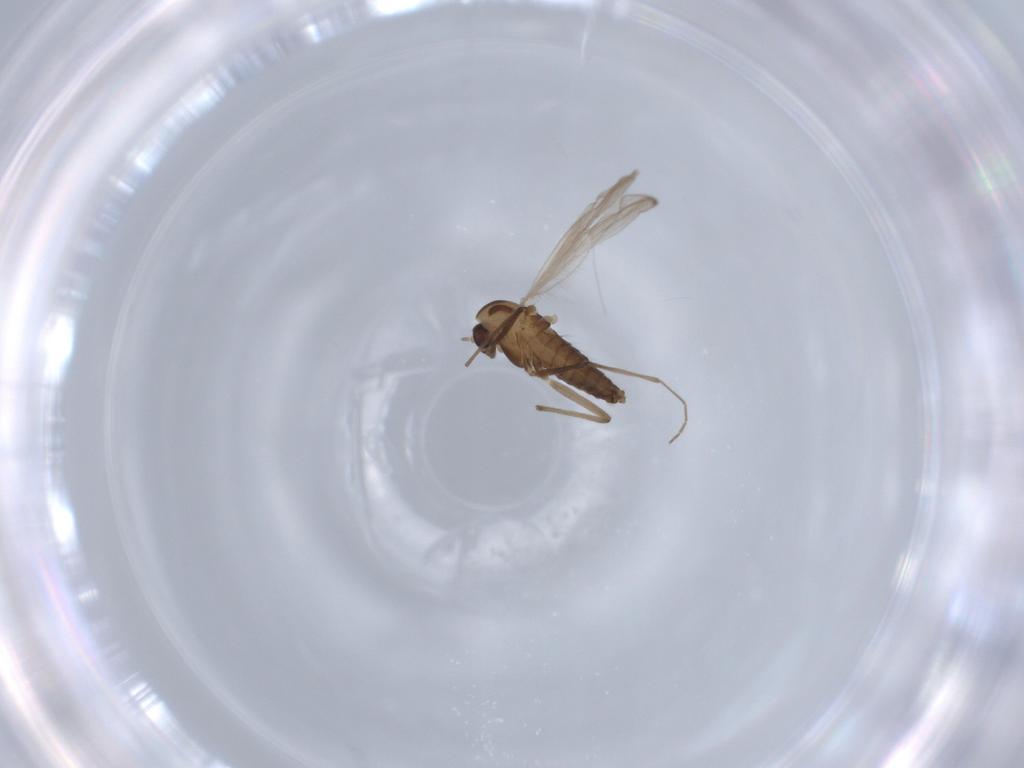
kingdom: Animalia
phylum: Arthropoda
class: Insecta
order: Diptera
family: Chironomidae
